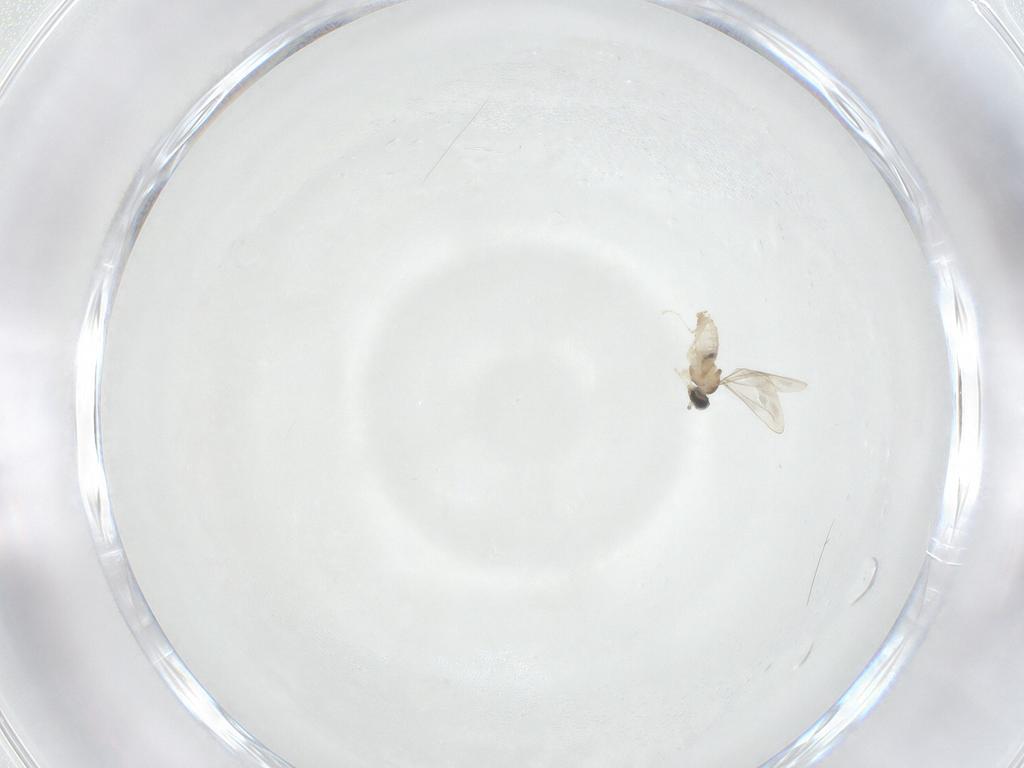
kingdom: Animalia
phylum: Arthropoda
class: Insecta
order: Diptera
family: Cecidomyiidae
